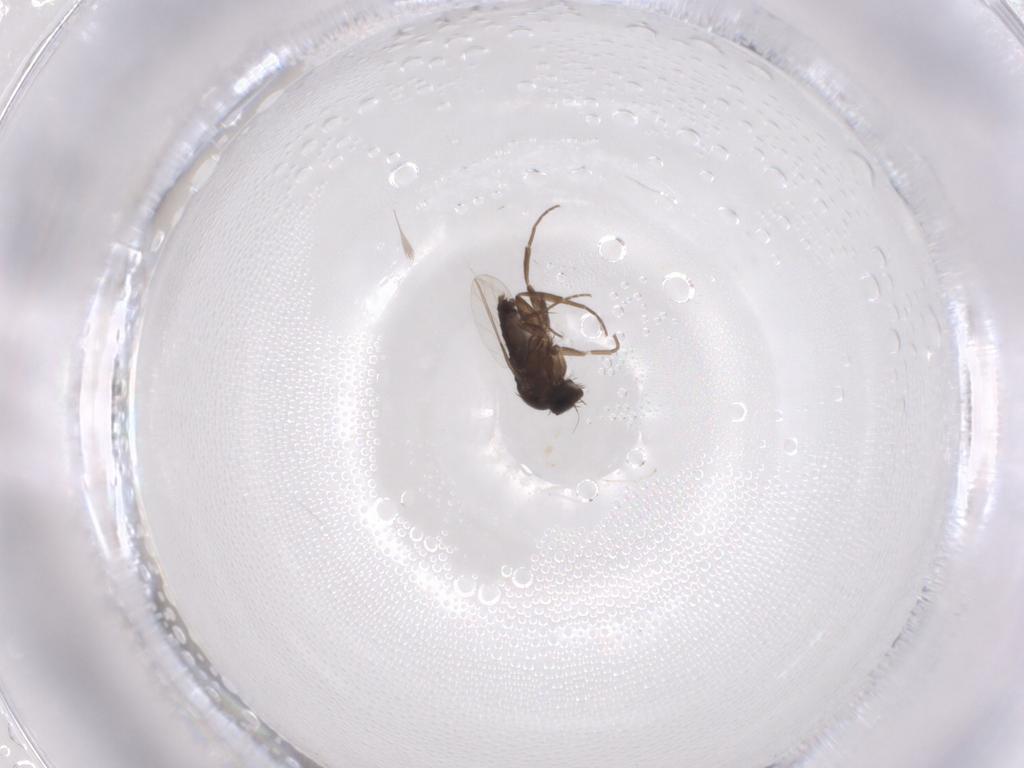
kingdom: Animalia
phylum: Arthropoda
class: Insecta
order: Diptera
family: Phoridae
